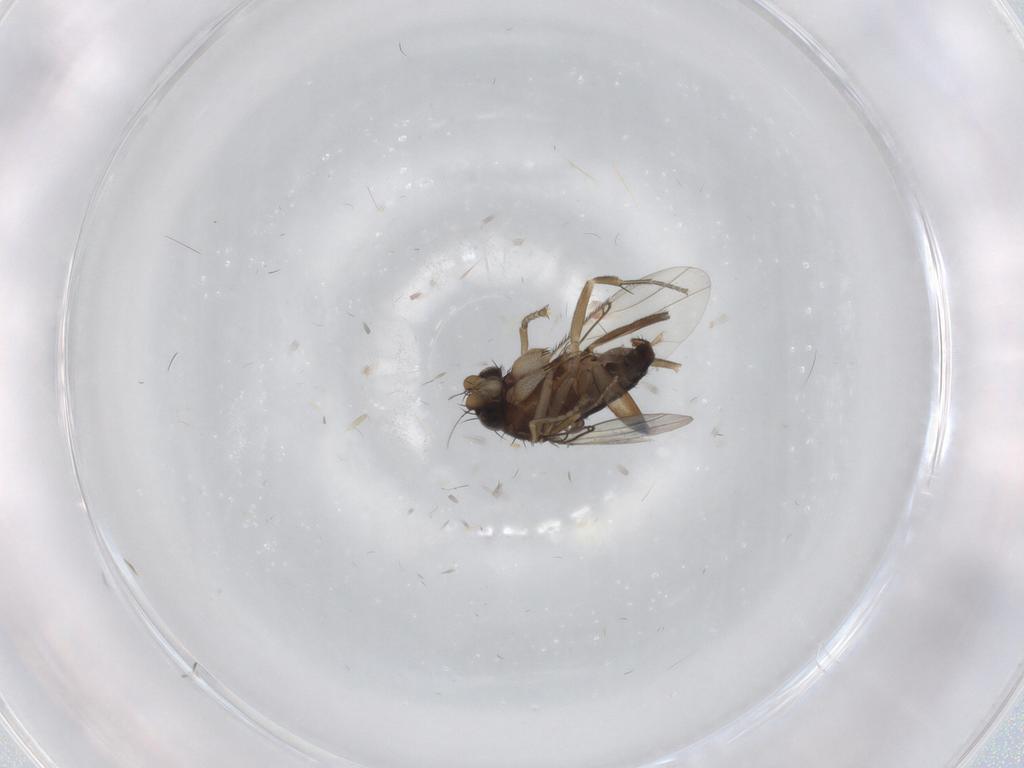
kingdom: Animalia
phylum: Arthropoda
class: Insecta
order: Diptera
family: Phoridae
